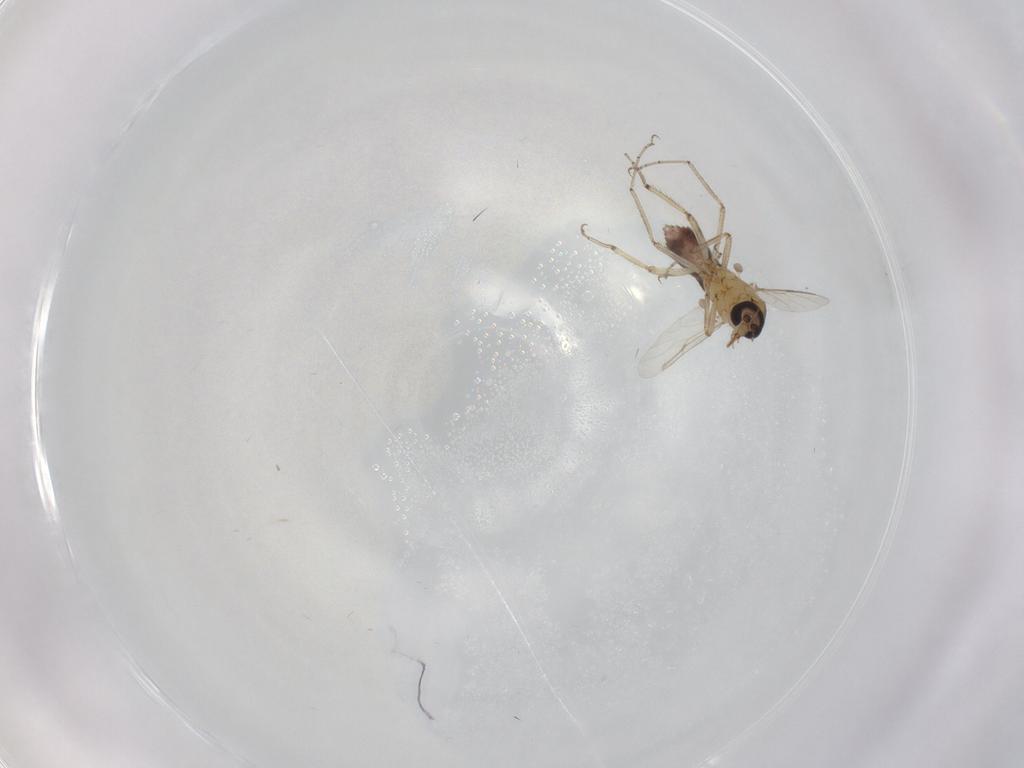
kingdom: Animalia
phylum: Arthropoda
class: Insecta
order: Diptera
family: Ceratopogonidae
